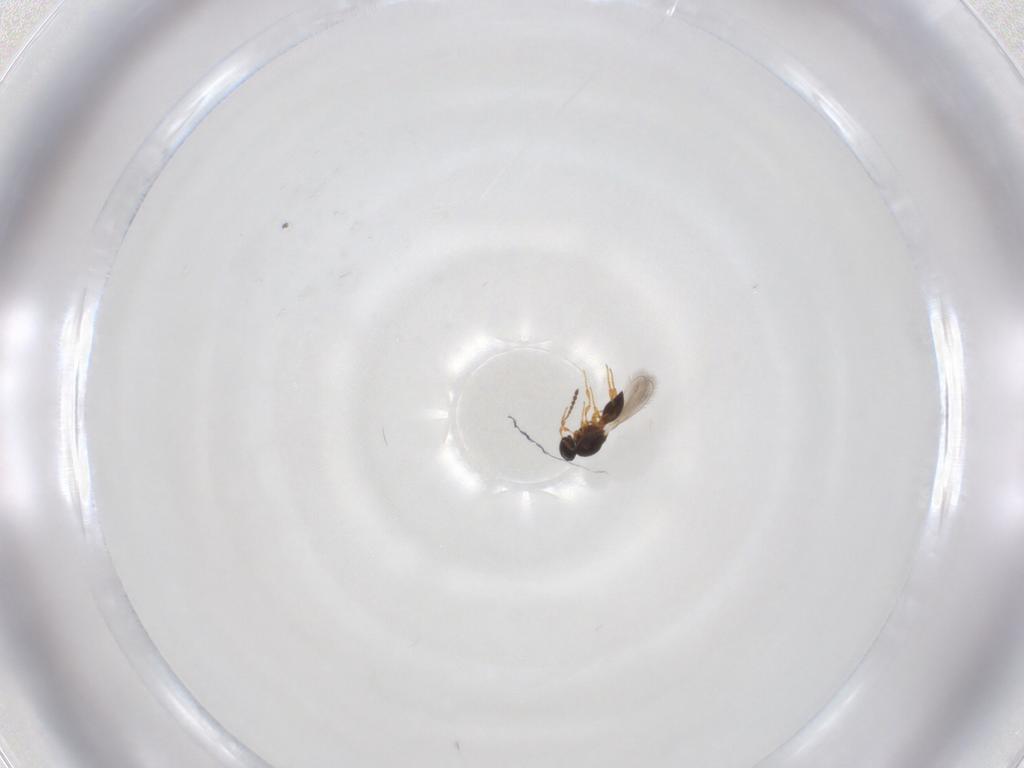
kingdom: Animalia
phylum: Arthropoda
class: Insecta
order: Hymenoptera
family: Platygastridae
